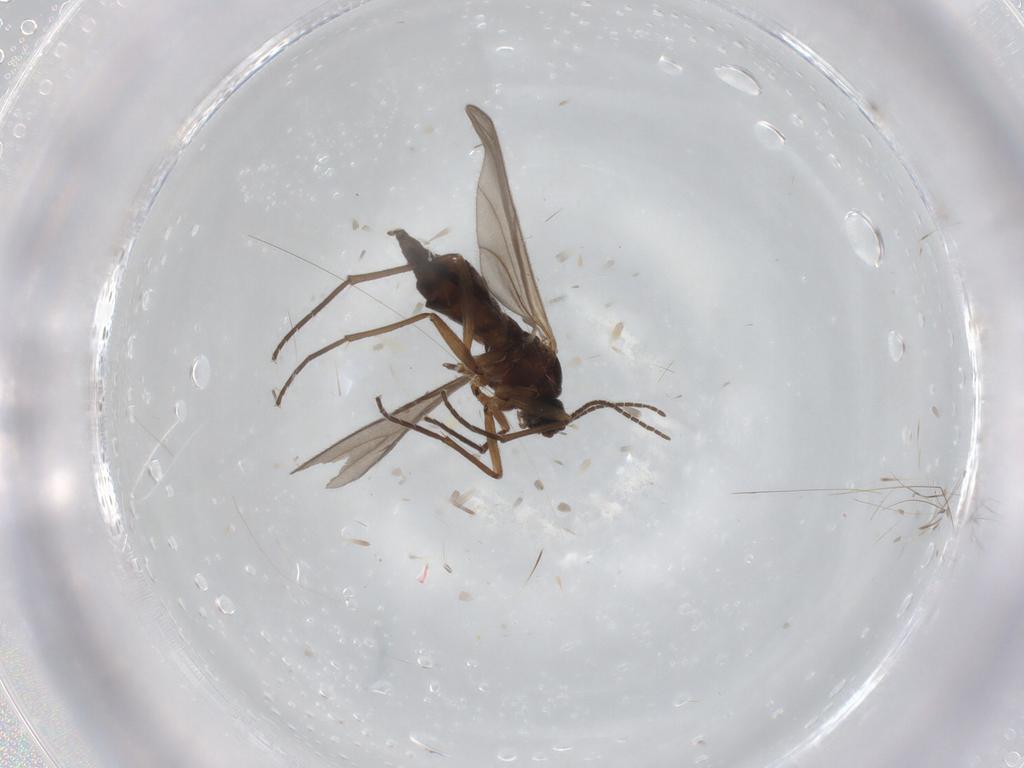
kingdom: Animalia
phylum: Arthropoda
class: Insecta
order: Diptera
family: Sciaridae
